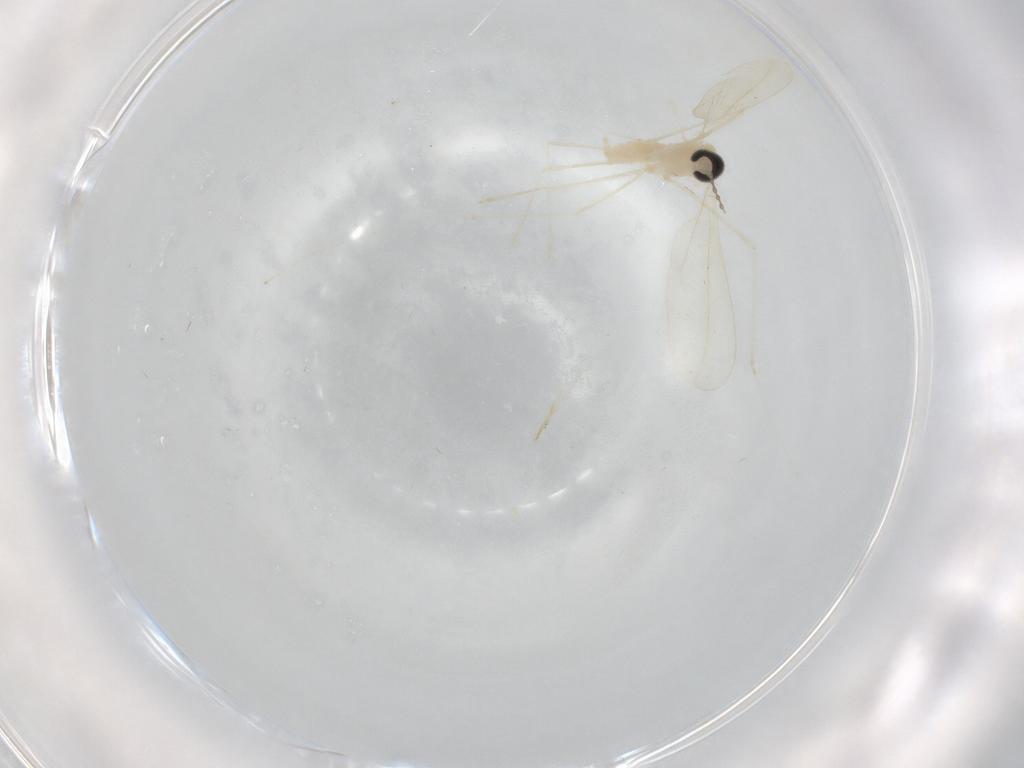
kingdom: Animalia
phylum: Arthropoda
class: Insecta
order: Diptera
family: Cecidomyiidae
